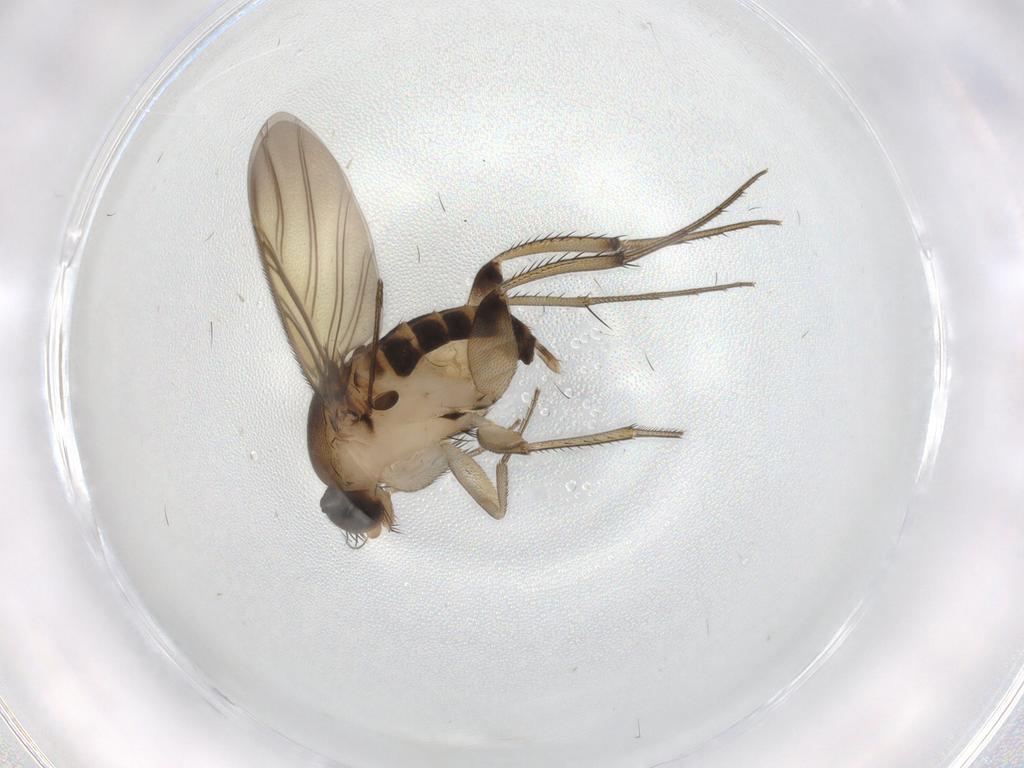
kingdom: Animalia
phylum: Arthropoda
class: Insecta
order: Diptera
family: Phoridae
